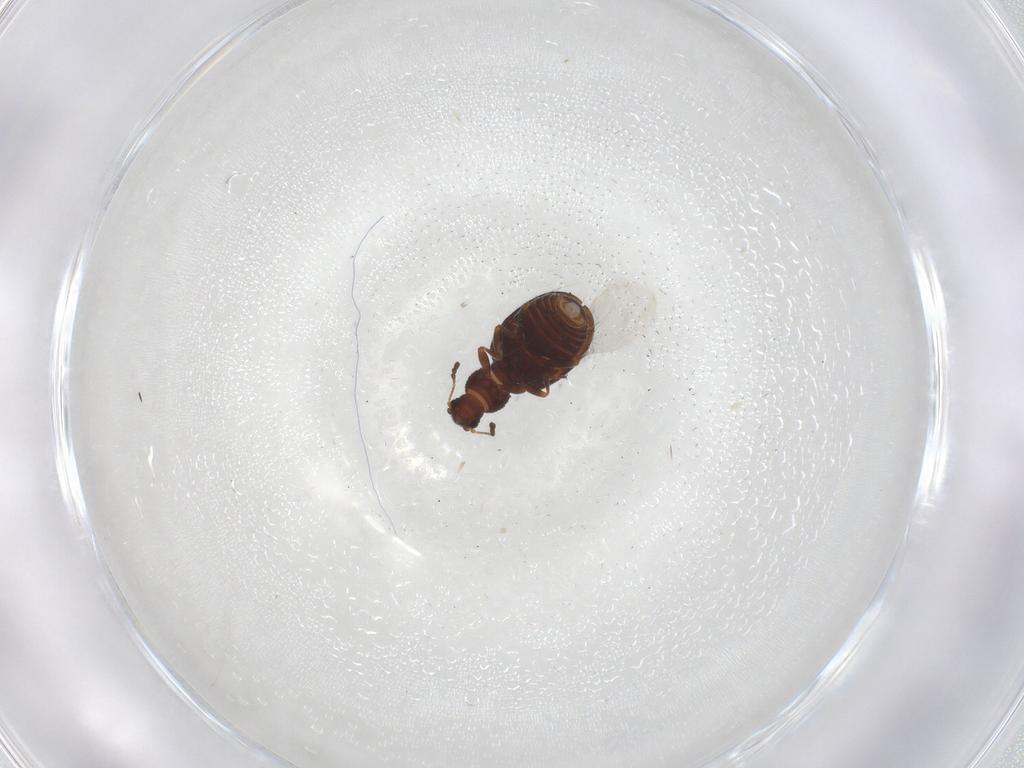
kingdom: Animalia
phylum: Arthropoda
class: Insecta
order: Coleoptera
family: Latridiidae
